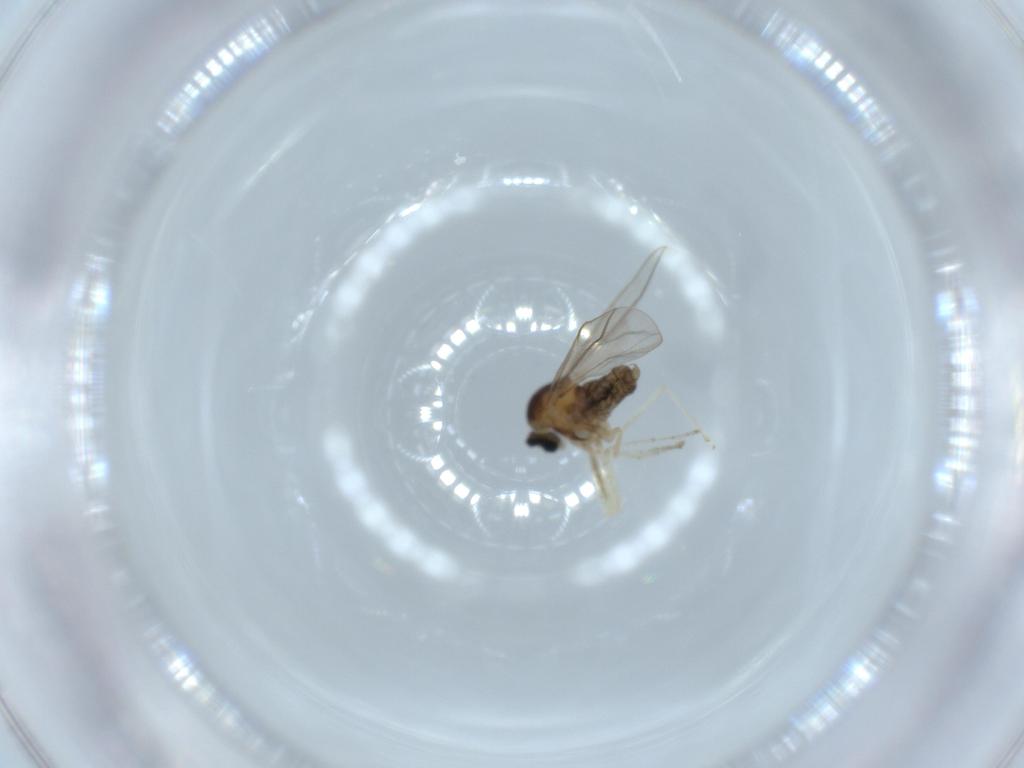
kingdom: Animalia
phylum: Arthropoda
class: Insecta
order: Diptera
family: Cecidomyiidae
